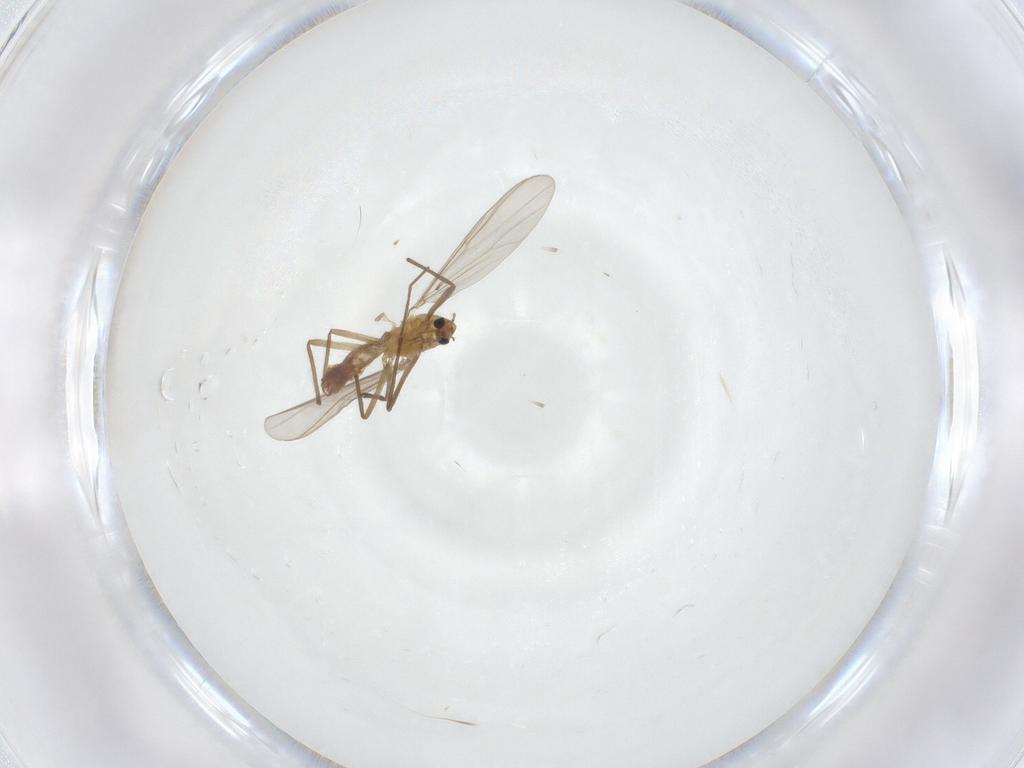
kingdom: Animalia
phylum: Arthropoda
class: Insecta
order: Diptera
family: Chironomidae
